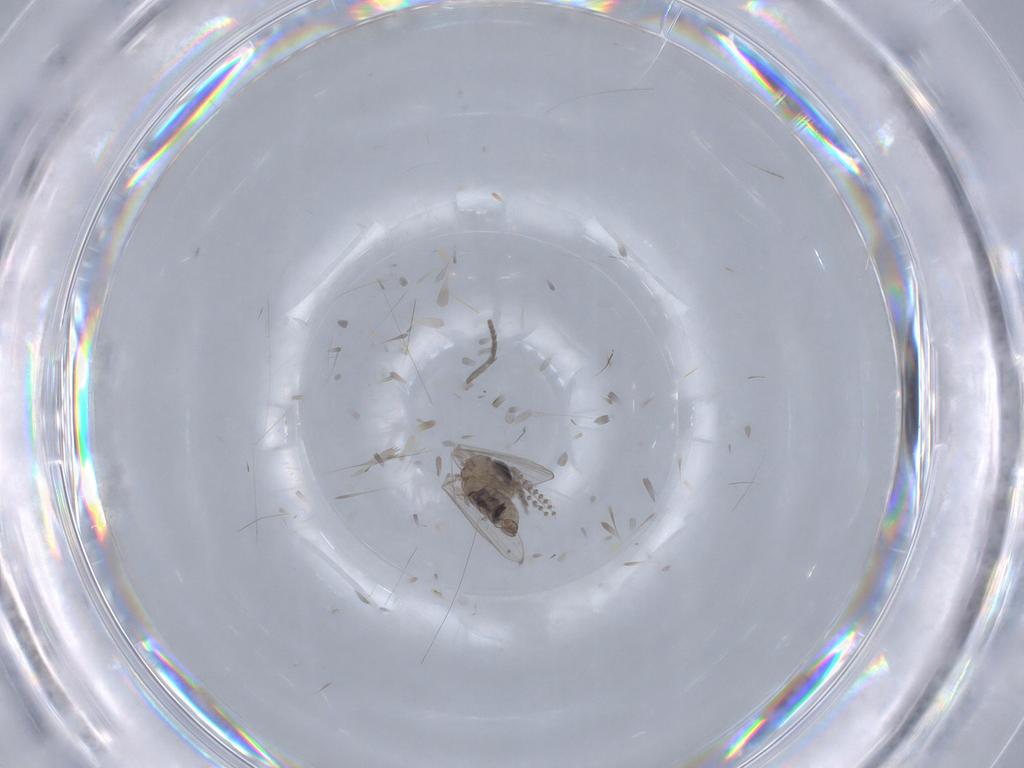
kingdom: Animalia
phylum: Arthropoda
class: Insecta
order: Diptera
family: Psychodidae
